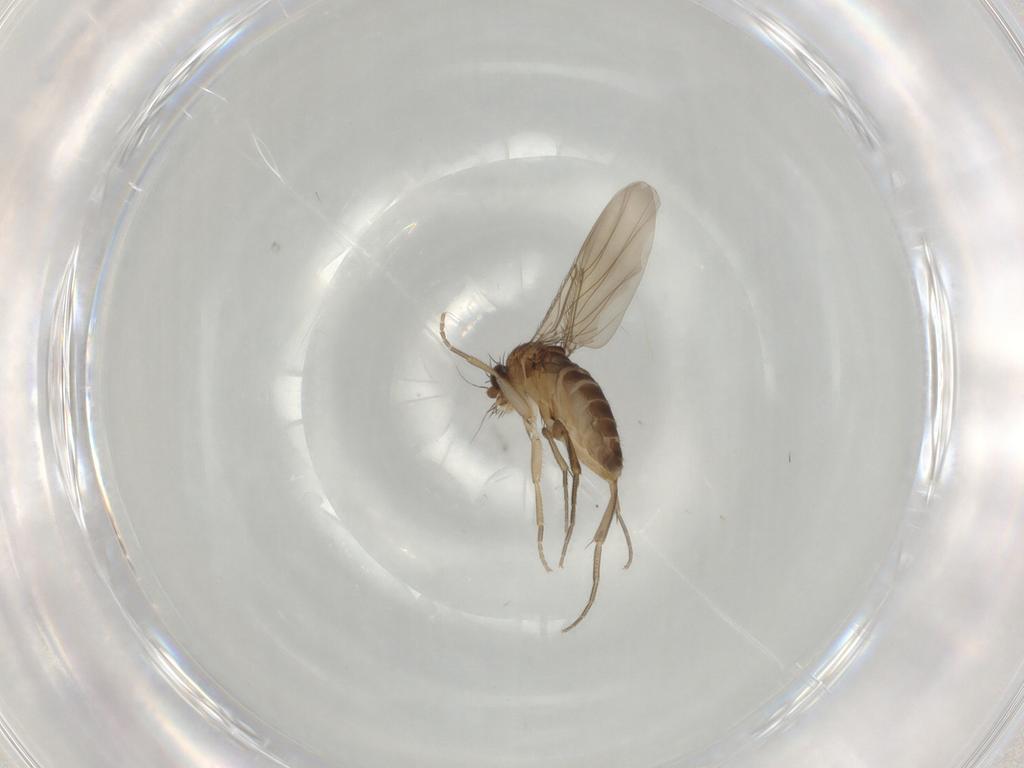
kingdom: Animalia
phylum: Arthropoda
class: Insecta
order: Diptera
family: Phoridae
